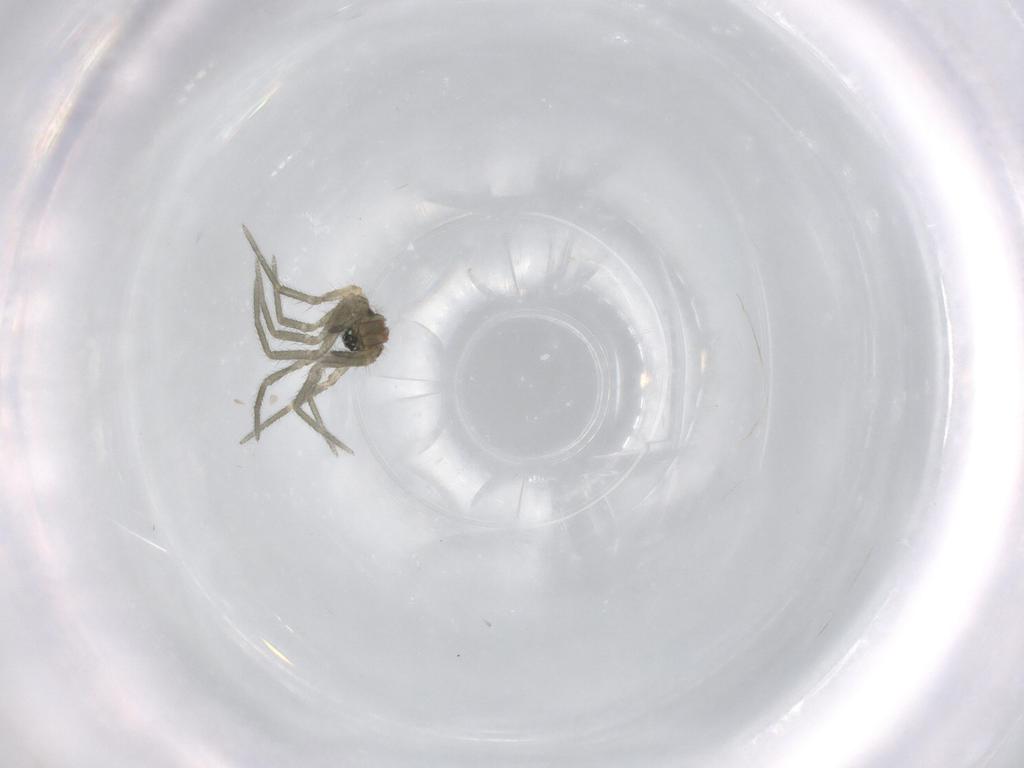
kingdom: Animalia
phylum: Arthropoda
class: Arachnida
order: Araneae
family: Linyphiidae
